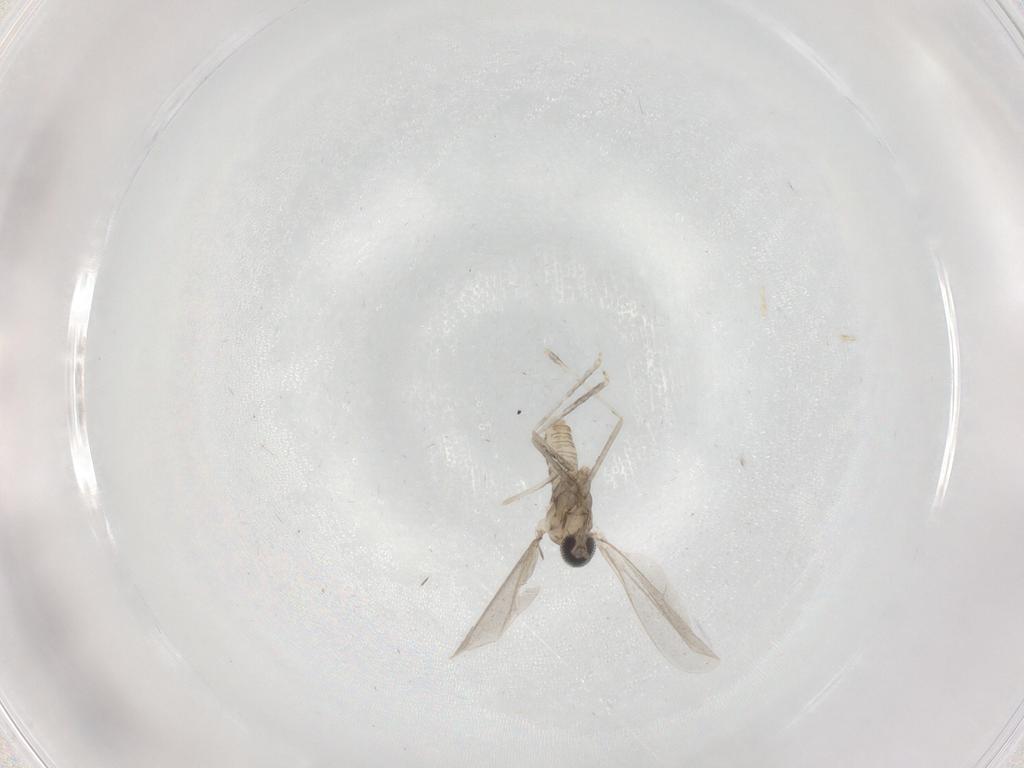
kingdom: Animalia
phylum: Arthropoda
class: Insecta
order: Diptera
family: Cecidomyiidae
